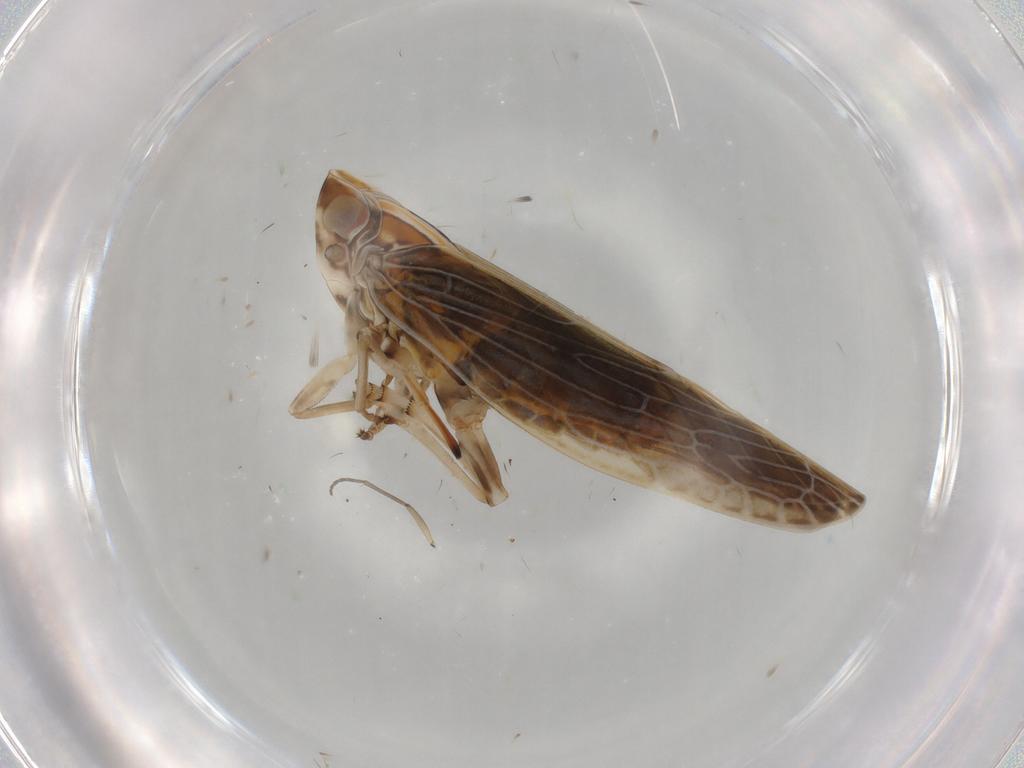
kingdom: Animalia
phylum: Arthropoda
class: Insecta
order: Hemiptera
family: Achilidae
